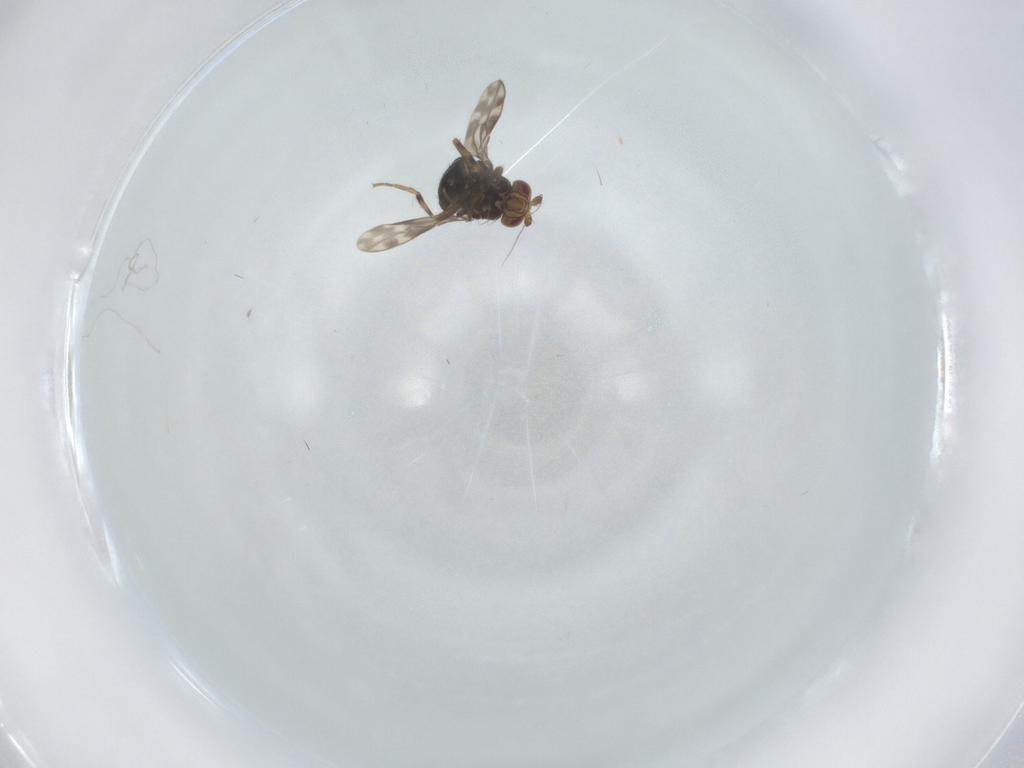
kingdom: Animalia
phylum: Arthropoda
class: Insecta
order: Diptera
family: Sphaeroceridae
